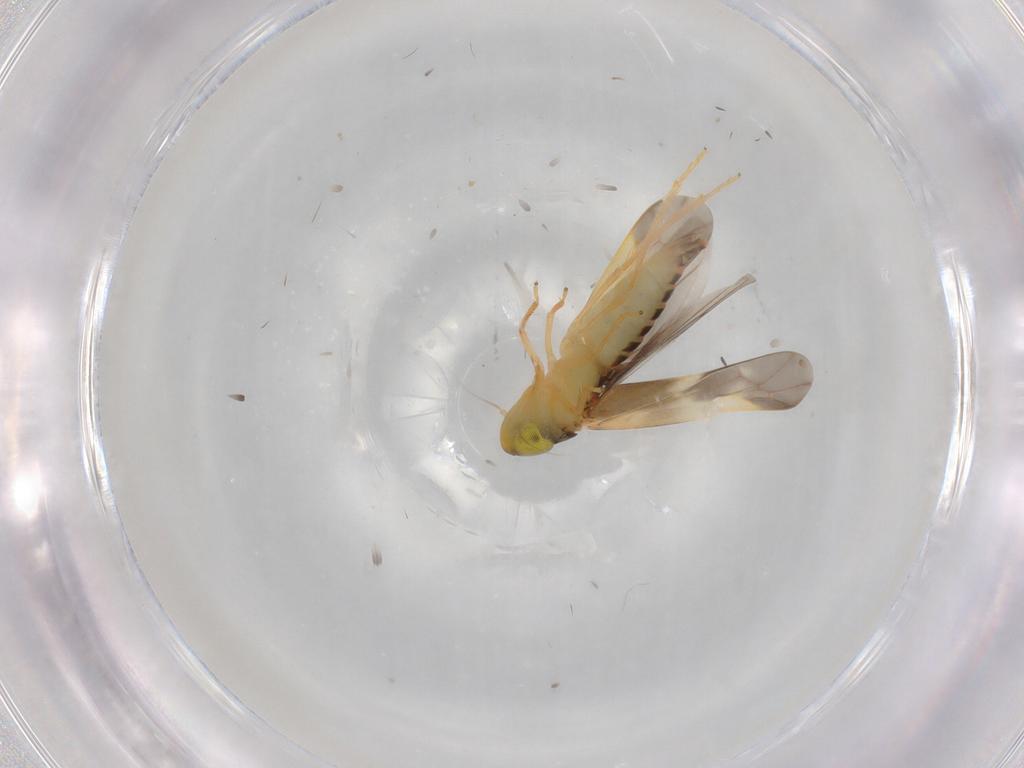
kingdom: Animalia
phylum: Arthropoda
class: Insecta
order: Hemiptera
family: Cicadellidae
